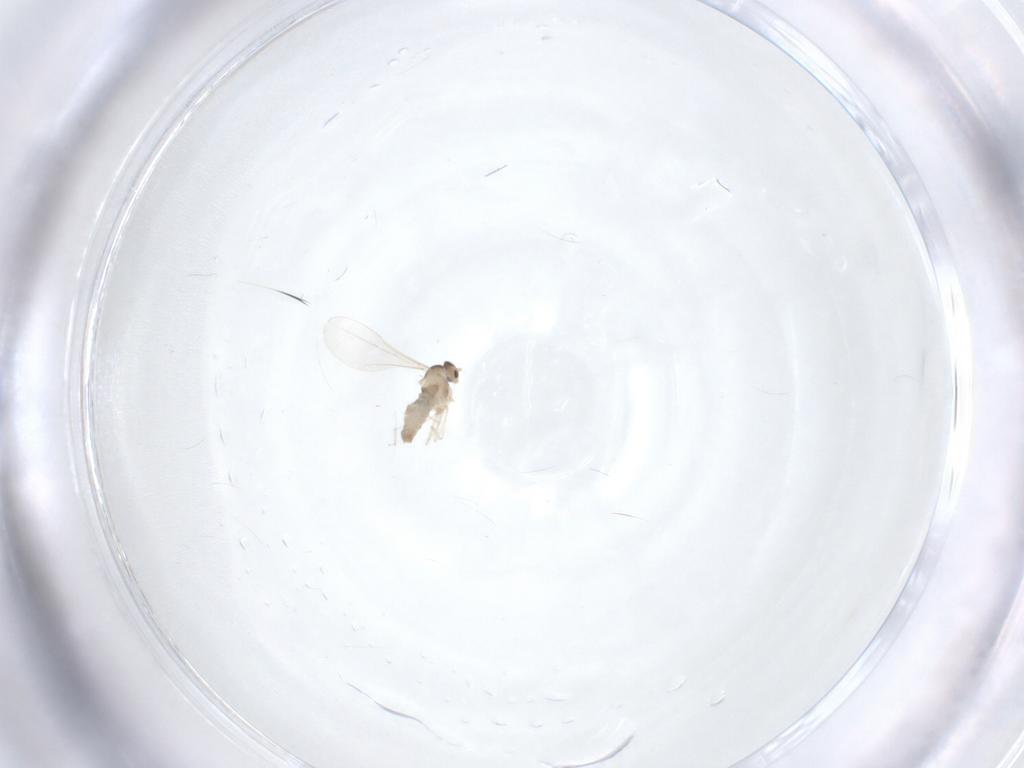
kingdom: Animalia
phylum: Arthropoda
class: Insecta
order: Diptera
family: Cecidomyiidae
